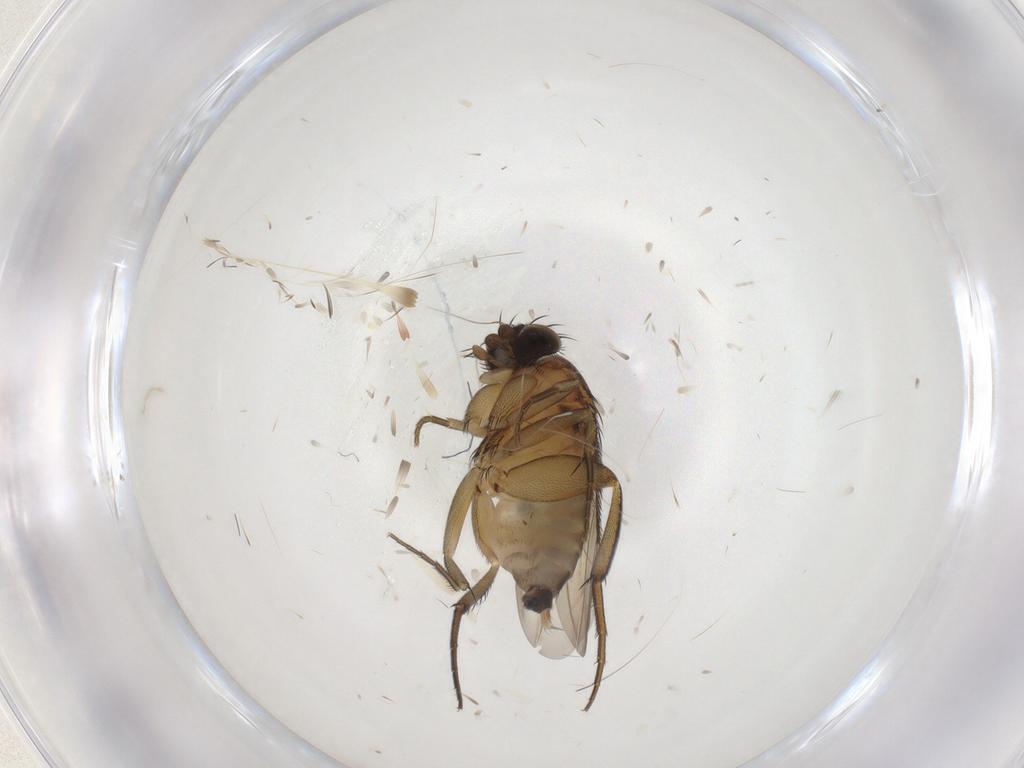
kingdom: Animalia
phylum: Arthropoda
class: Insecta
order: Diptera
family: Phoridae
